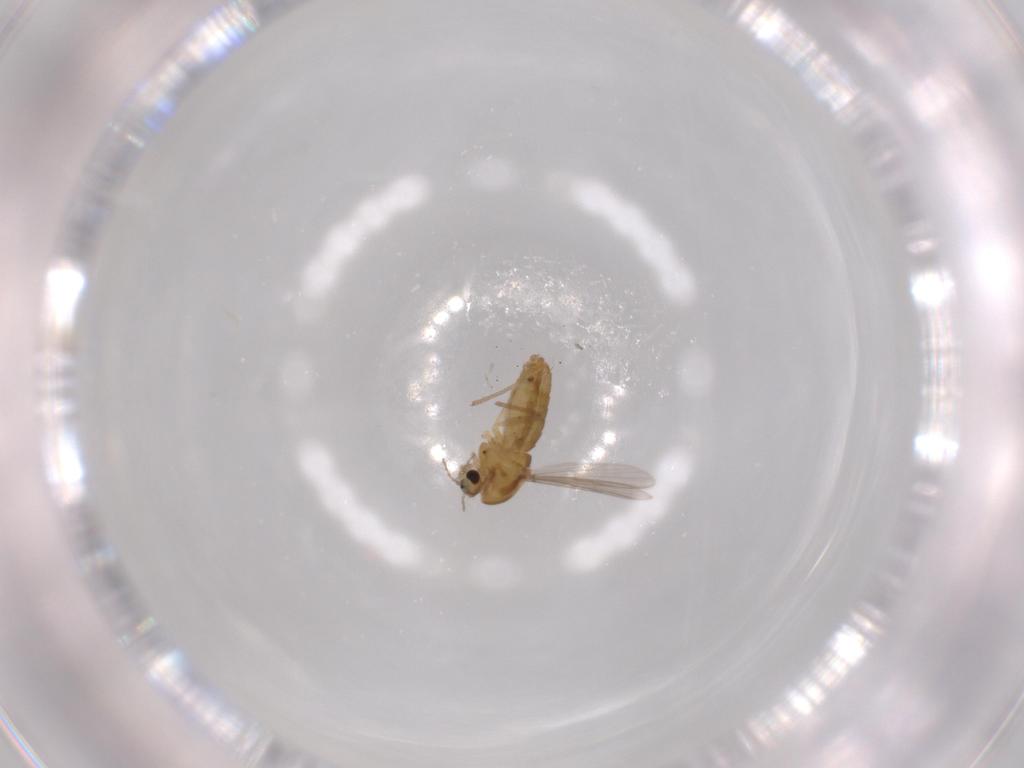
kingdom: Animalia
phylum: Arthropoda
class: Insecta
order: Diptera
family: Chironomidae
